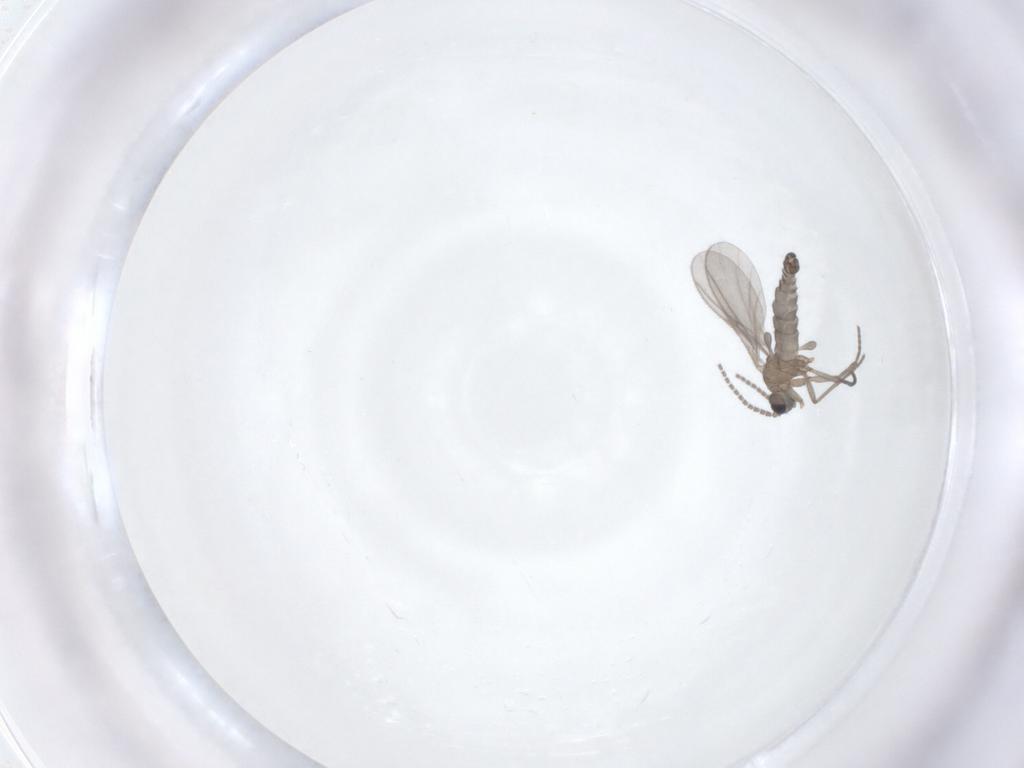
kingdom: Animalia
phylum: Arthropoda
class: Insecta
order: Diptera
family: Sciaridae
